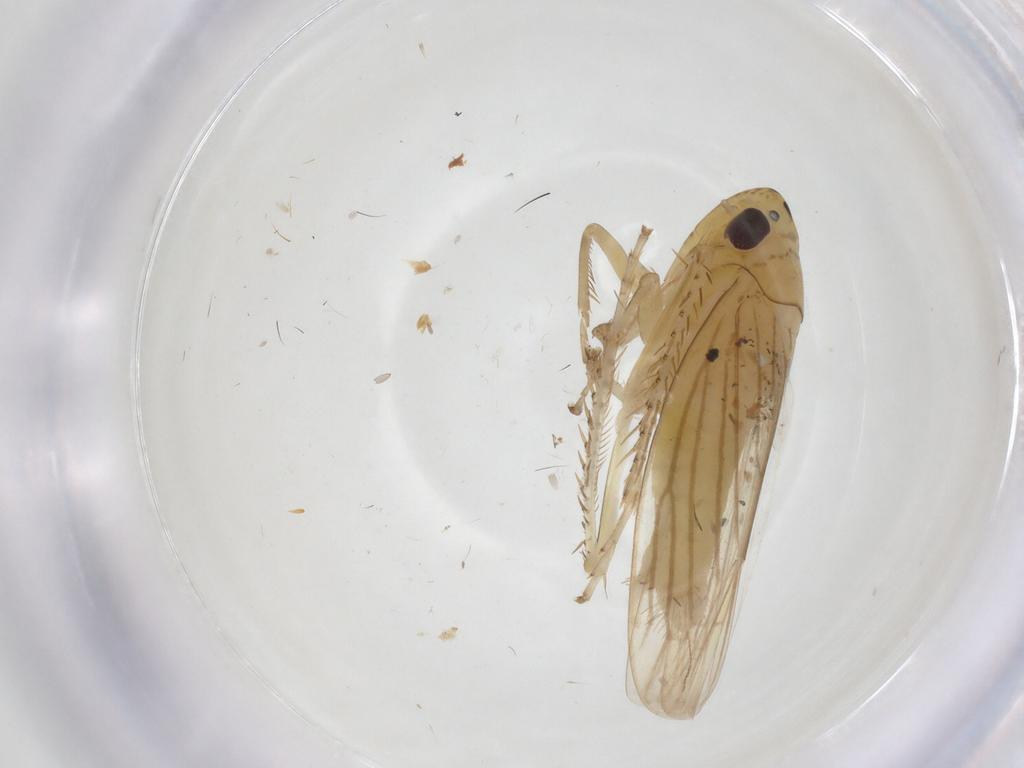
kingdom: Animalia
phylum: Arthropoda
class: Insecta
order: Hemiptera
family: Cicadellidae
